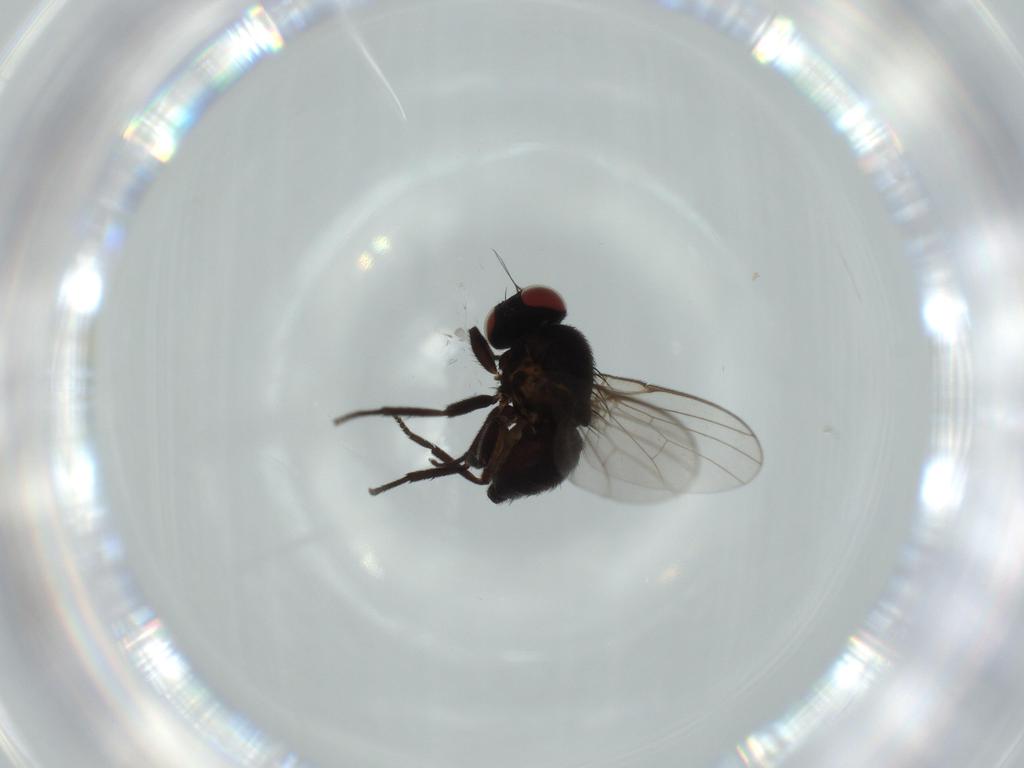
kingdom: Animalia
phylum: Arthropoda
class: Insecta
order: Diptera
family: Agromyzidae
